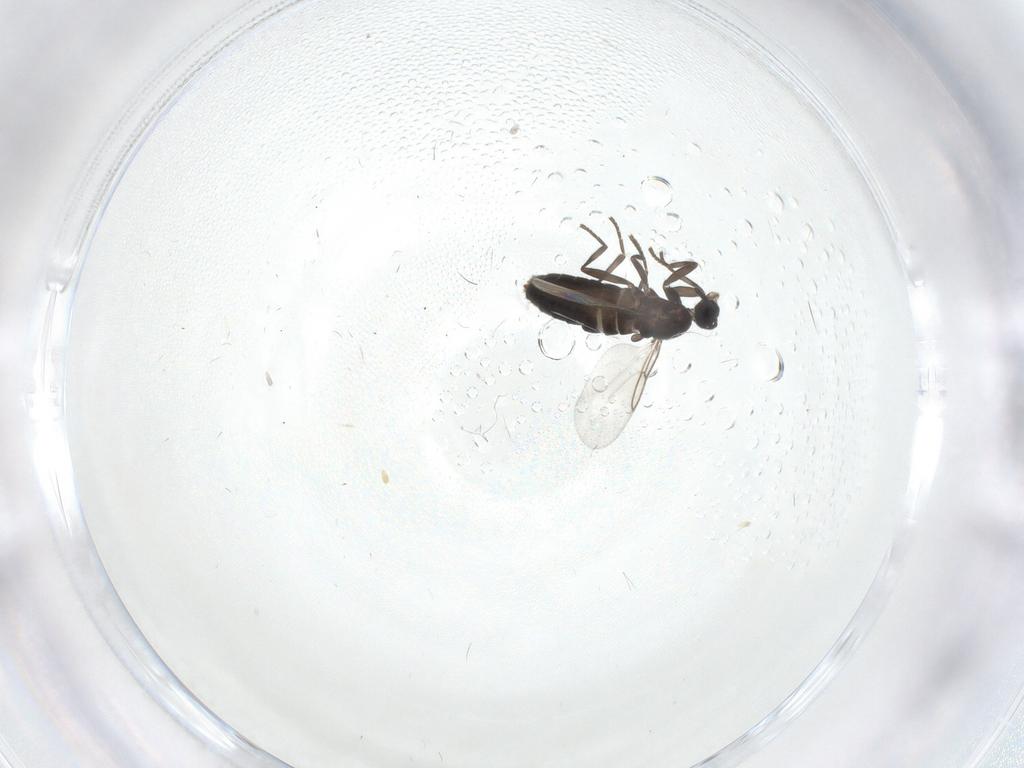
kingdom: Animalia
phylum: Arthropoda
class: Insecta
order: Diptera
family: Cecidomyiidae
